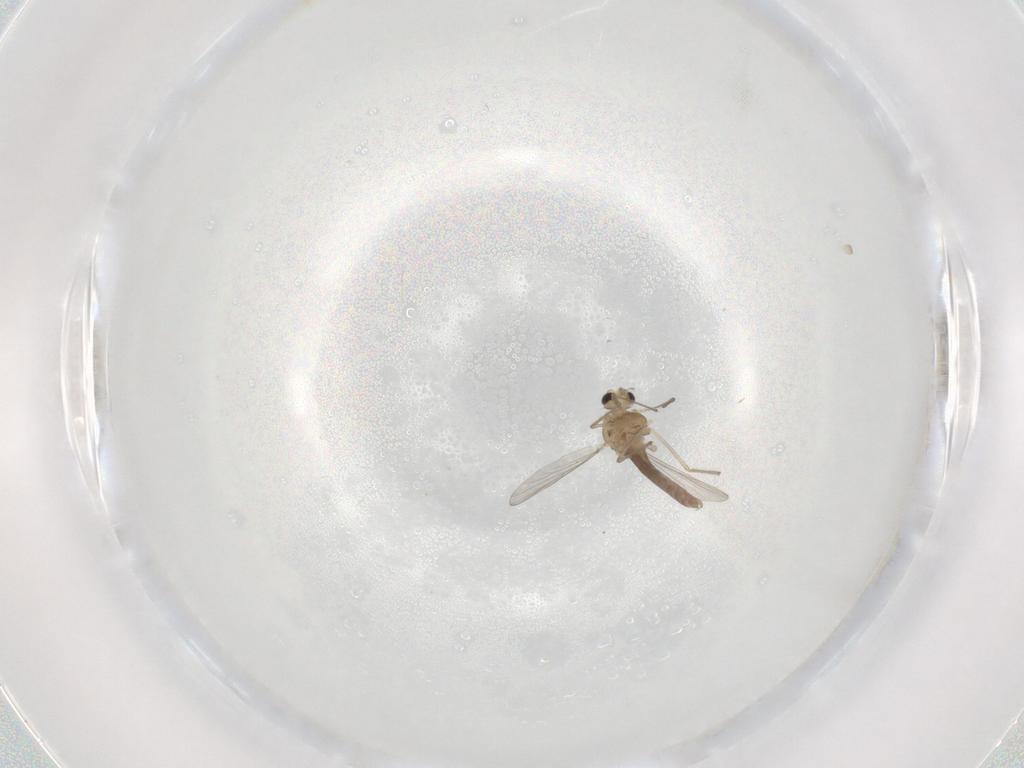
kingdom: Animalia
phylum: Arthropoda
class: Insecta
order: Diptera
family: Chironomidae
